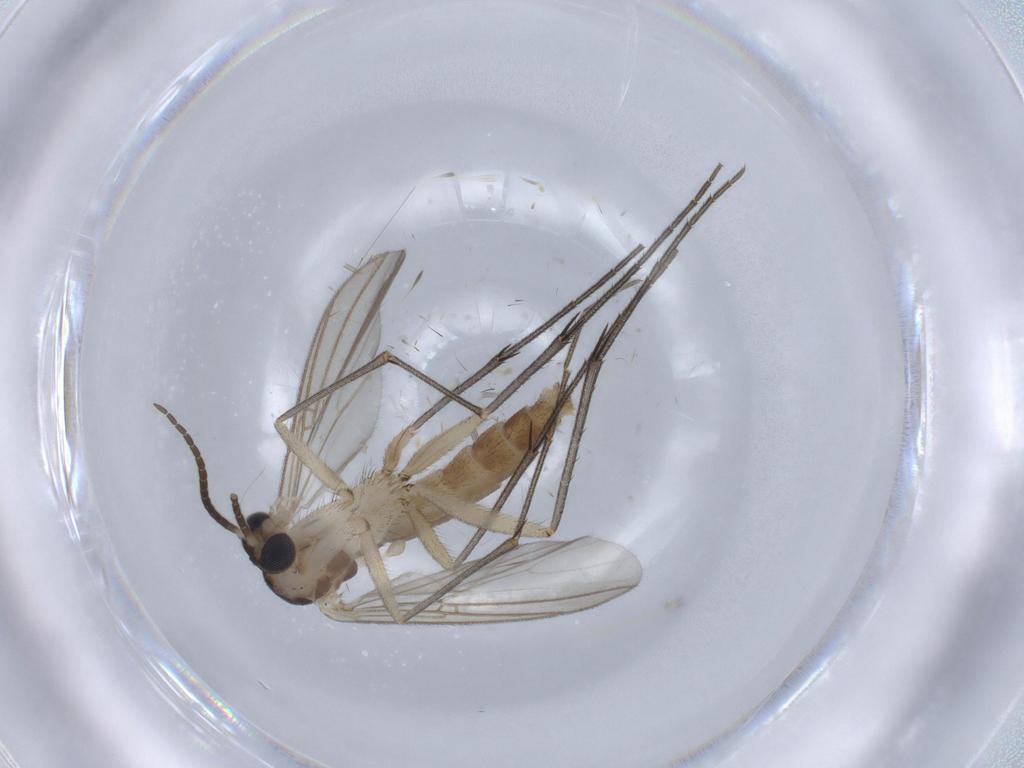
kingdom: Animalia
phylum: Arthropoda
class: Insecta
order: Diptera
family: Ceratopogonidae
